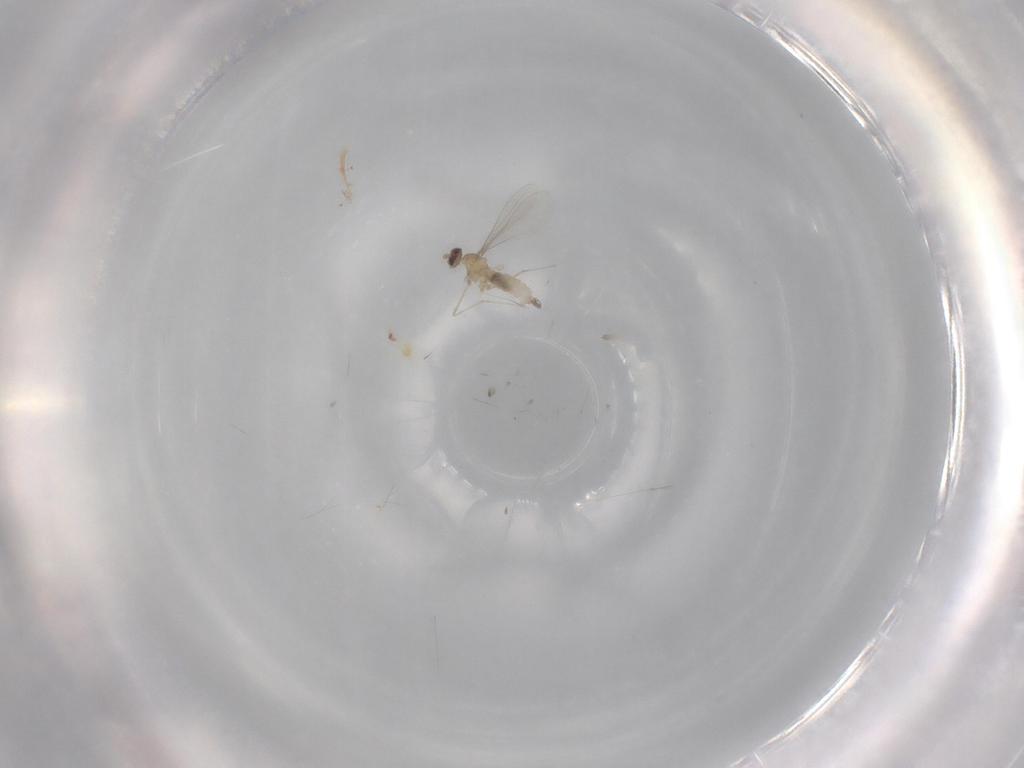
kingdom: Animalia
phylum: Arthropoda
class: Insecta
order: Diptera
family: Cecidomyiidae
